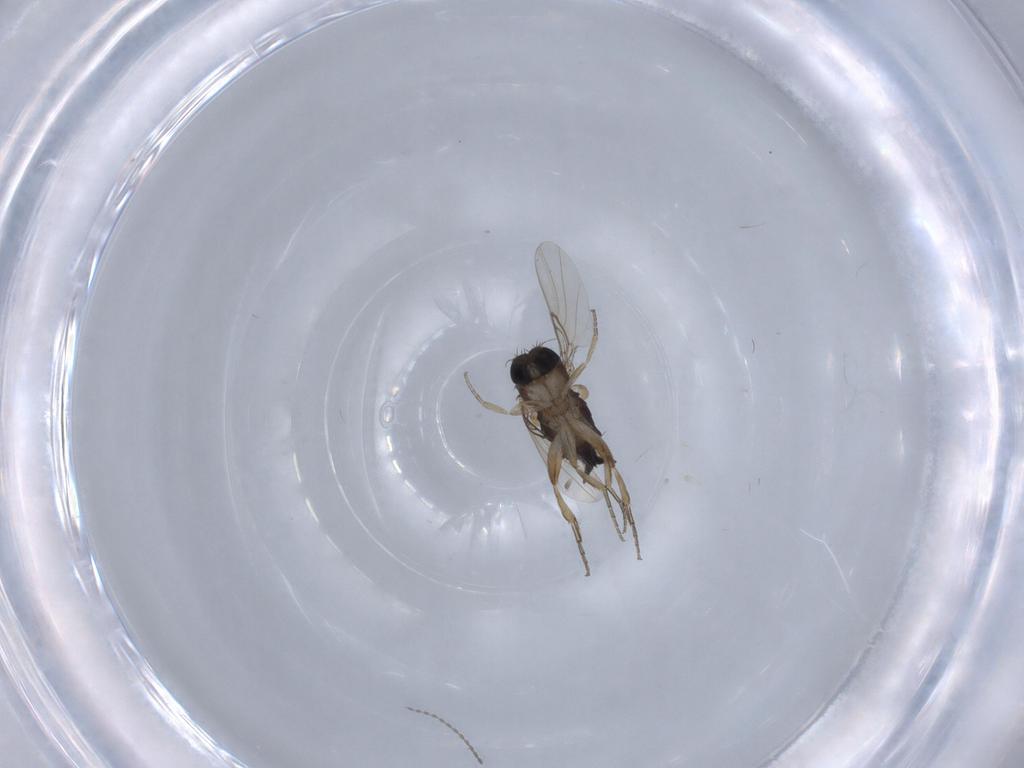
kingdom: Animalia
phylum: Arthropoda
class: Insecta
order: Diptera
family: Phoridae
